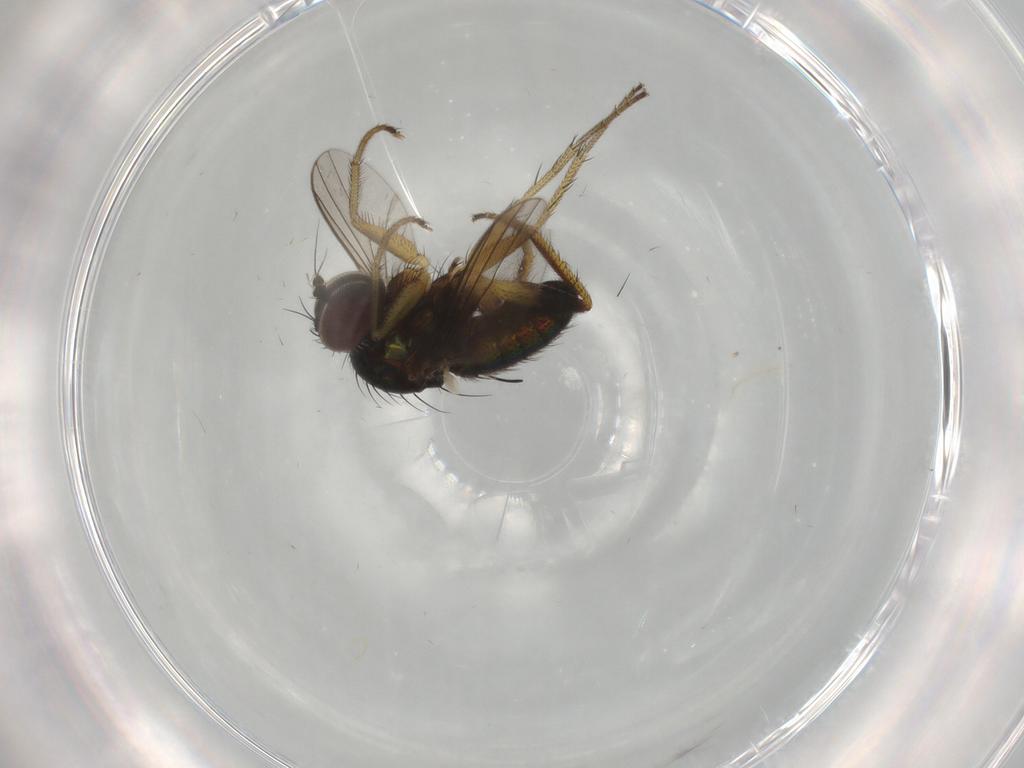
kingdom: Animalia
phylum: Arthropoda
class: Insecta
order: Diptera
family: Dolichopodidae
